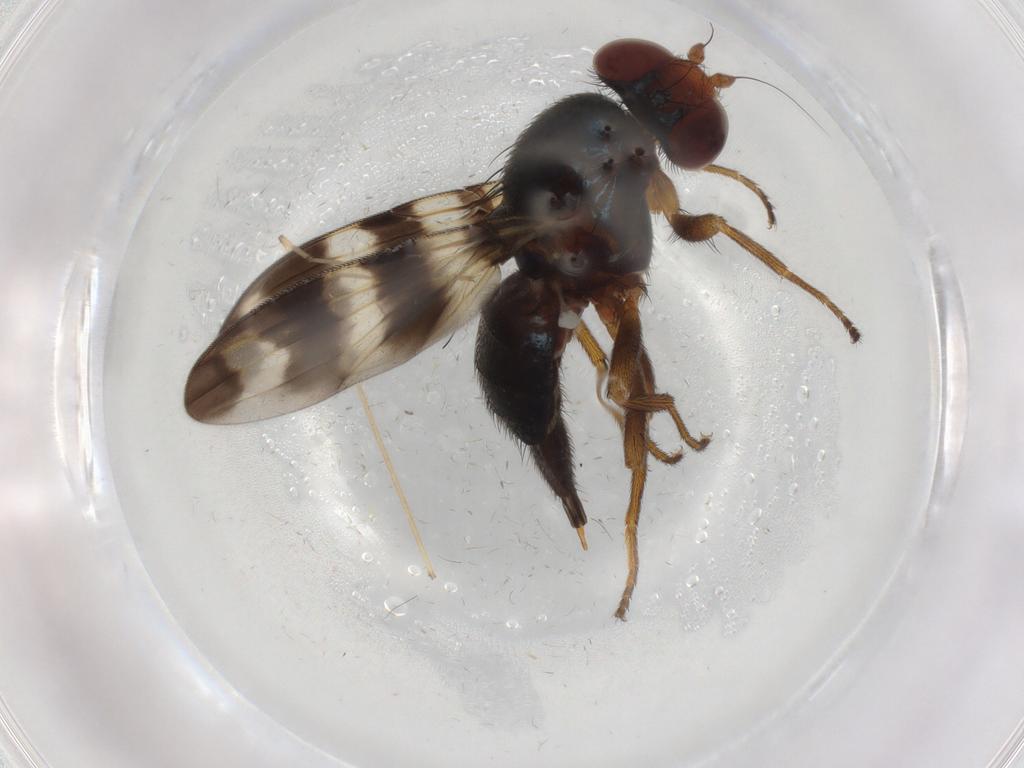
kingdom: Animalia
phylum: Arthropoda
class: Insecta
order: Diptera
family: Ulidiidae
